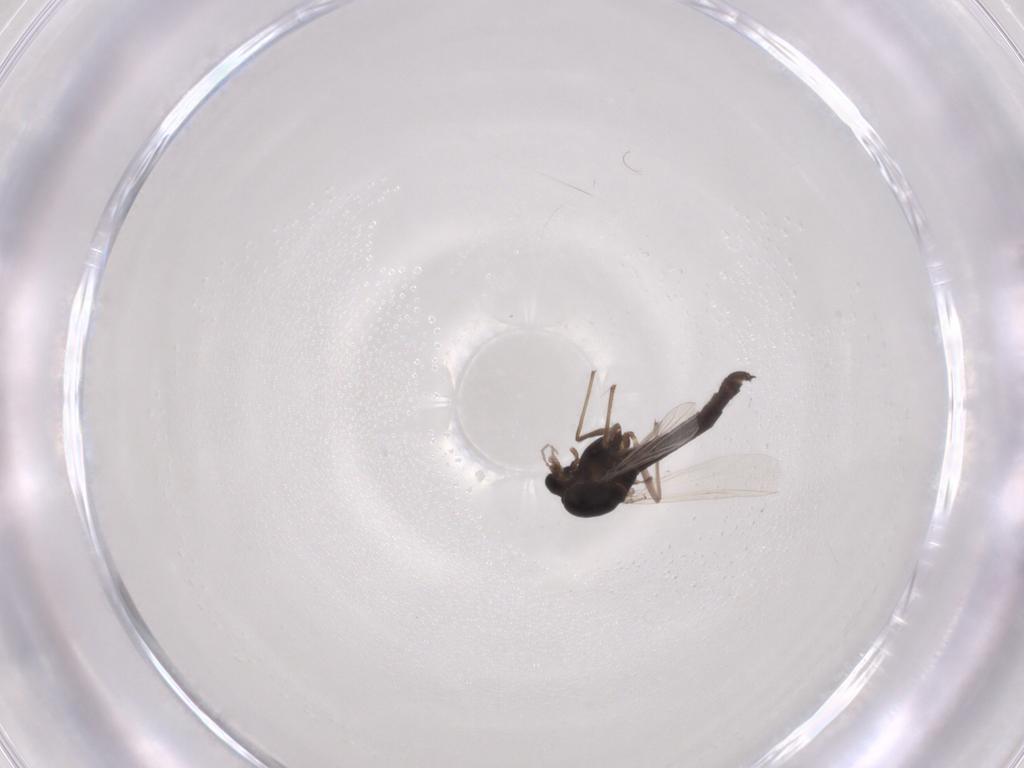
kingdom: Animalia
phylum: Arthropoda
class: Insecta
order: Diptera
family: Chironomidae
